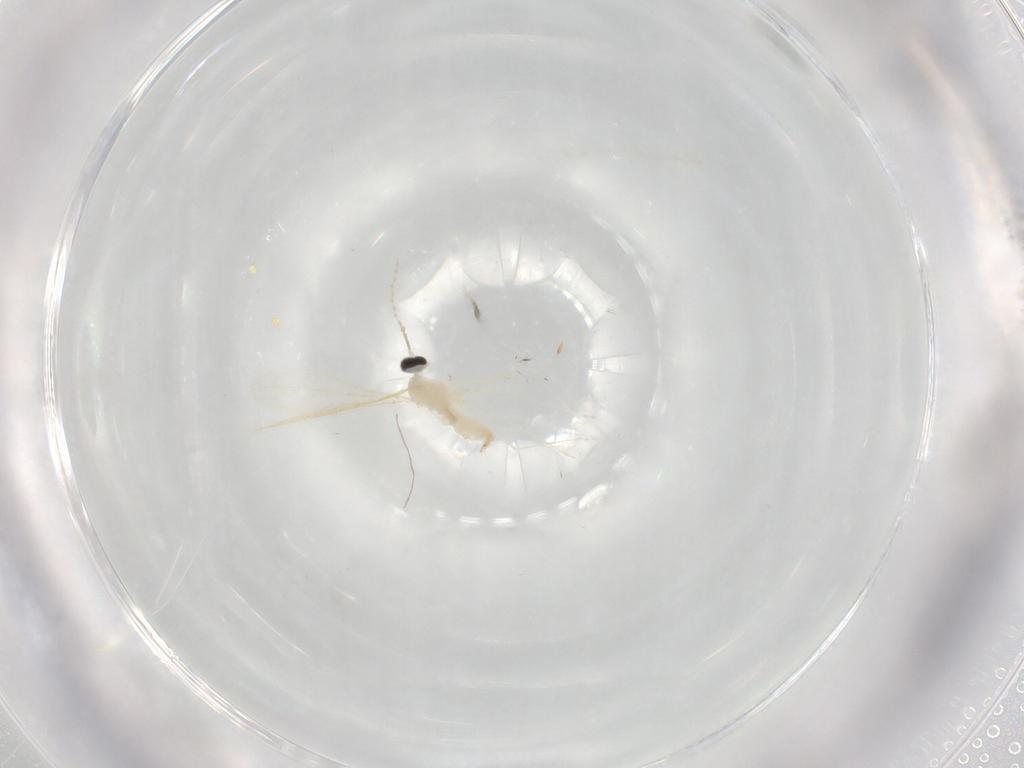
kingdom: Animalia
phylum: Arthropoda
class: Insecta
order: Diptera
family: Cecidomyiidae
